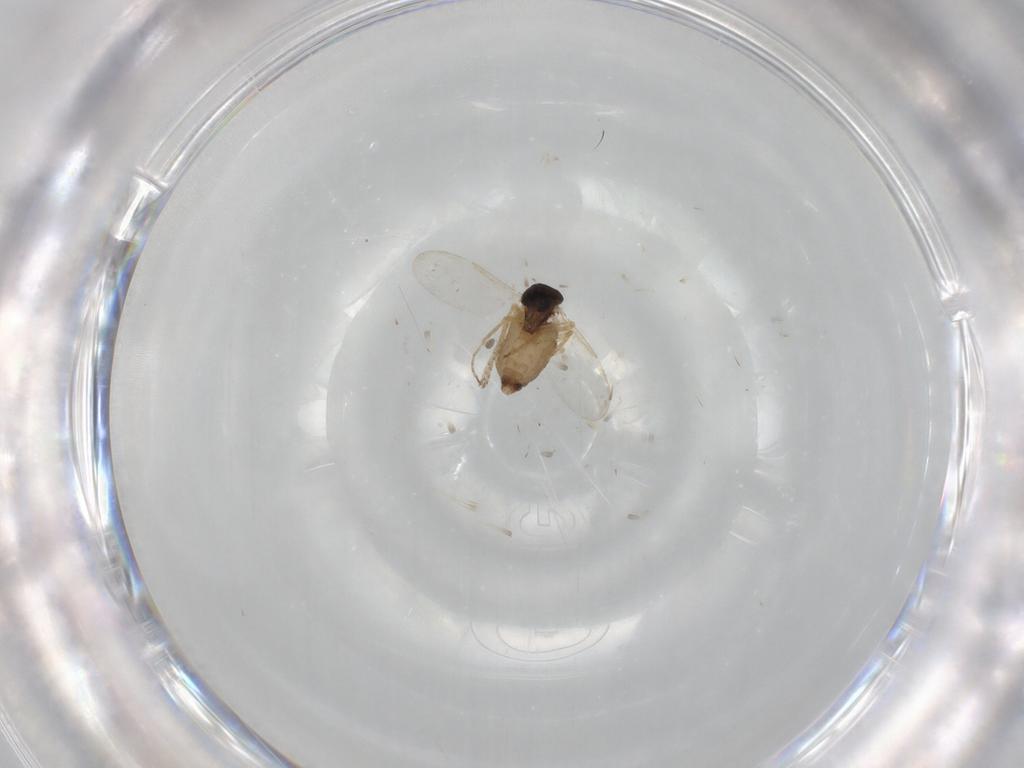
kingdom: Animalia
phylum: Arthropoda
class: Insecta
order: Diptera
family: Ceratopogonidae
